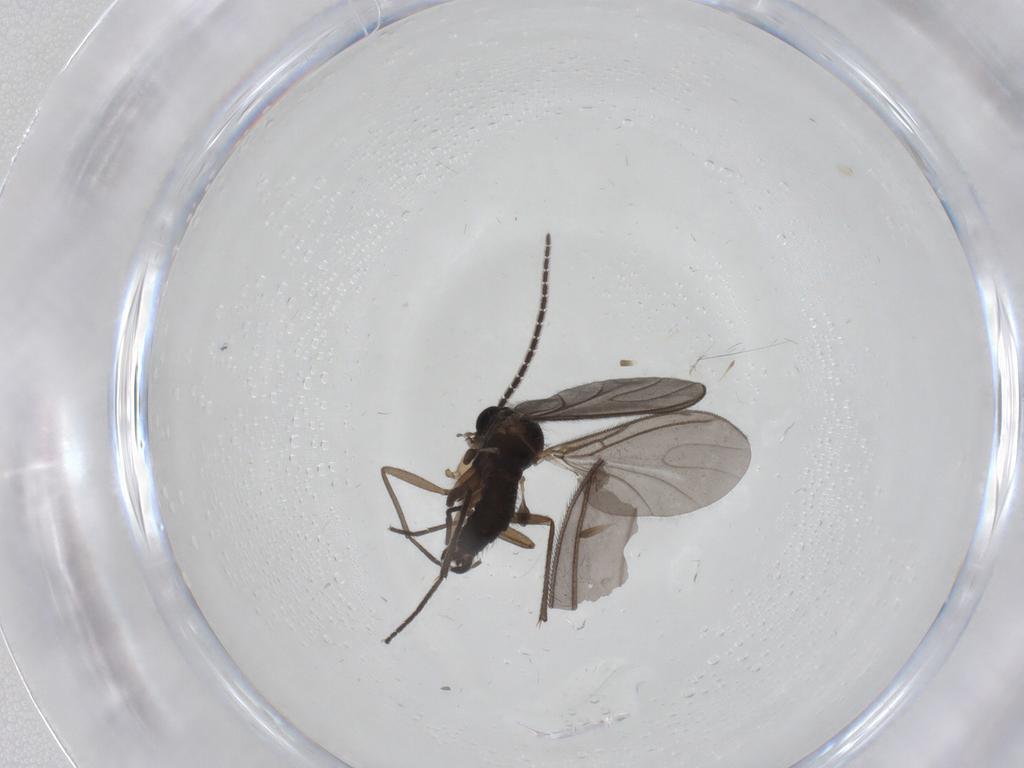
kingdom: Animalia
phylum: Arthropoda
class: Insecta
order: Diptera
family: Sciaridae
